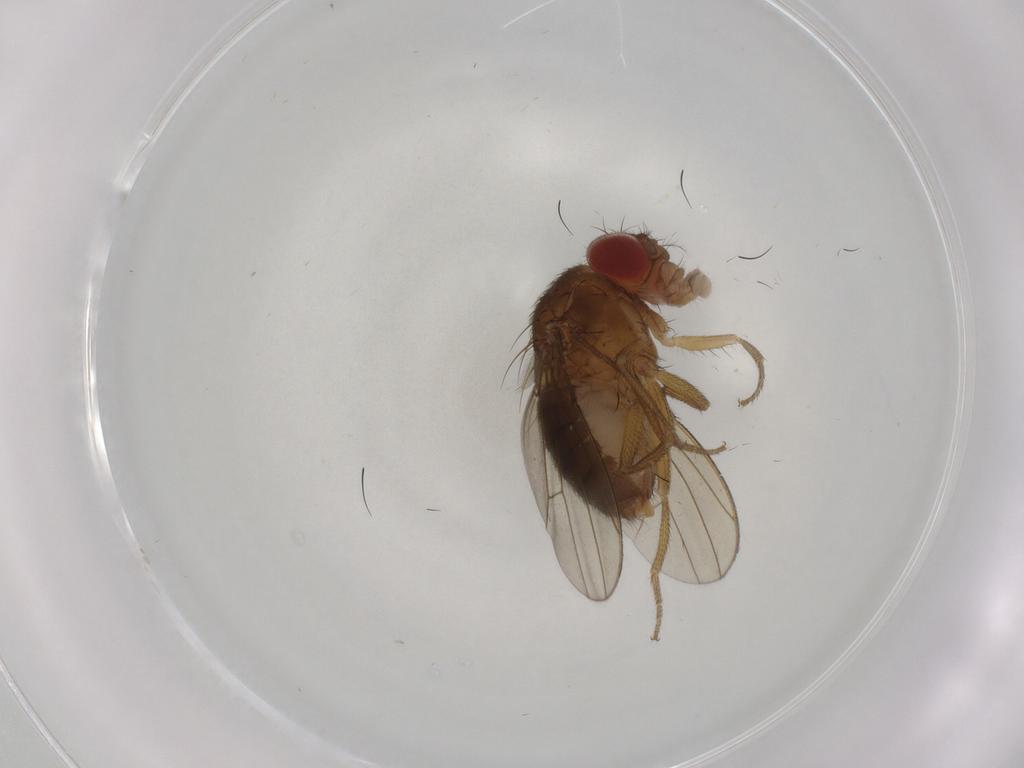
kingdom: Animalia
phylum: Arthropoda
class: Insecta
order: Diptera
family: Drosophilidae
